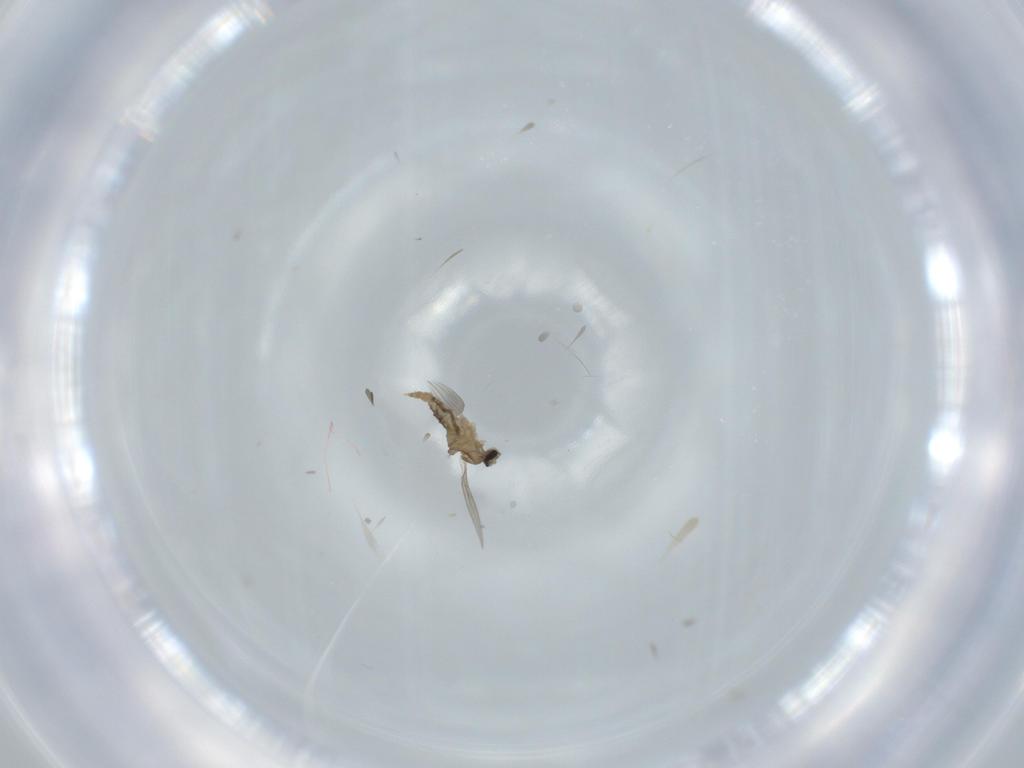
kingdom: Animalia
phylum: Arthropoda
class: Insecta
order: Diptera
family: Cecidomyiidae
